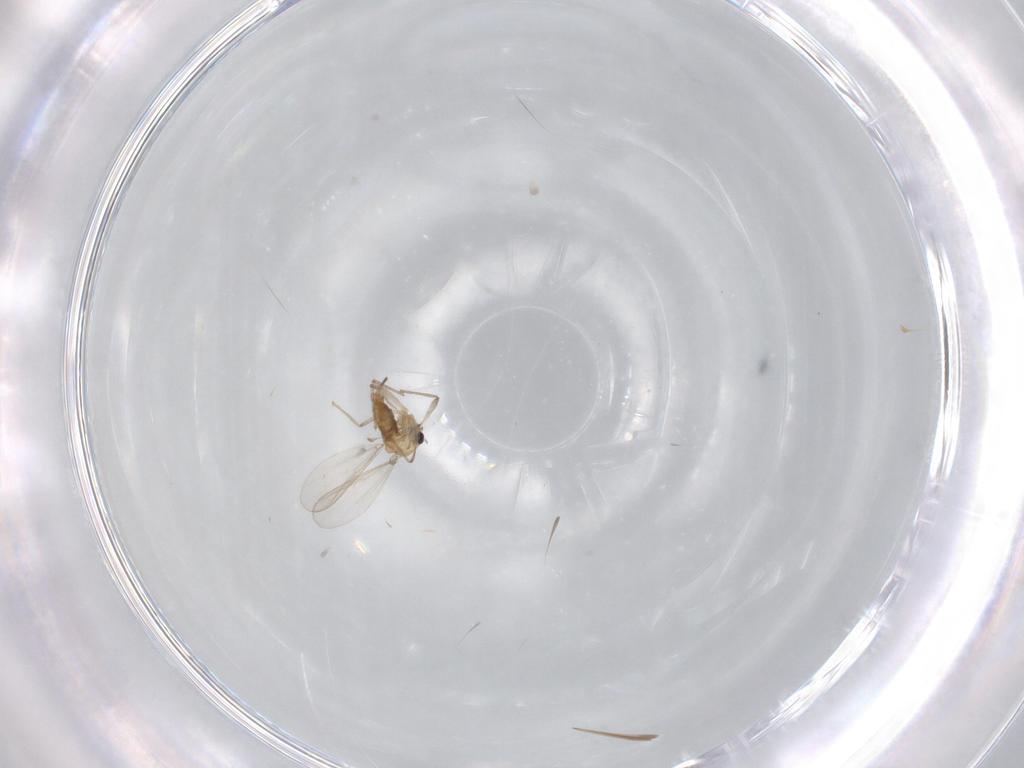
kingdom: Animalia
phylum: Arthropoda
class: Insecta
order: Diptera
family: Chironomidae
